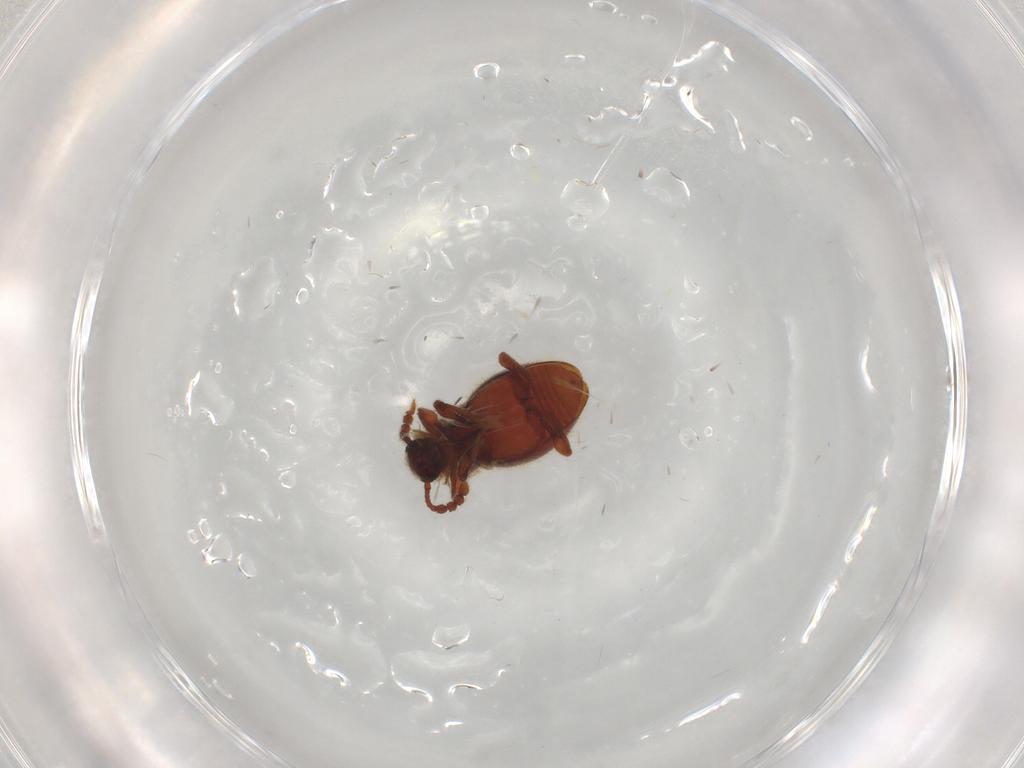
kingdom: Animalia
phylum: Arthropoda
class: Insecta
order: Coleoptera
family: Staphylinidae
